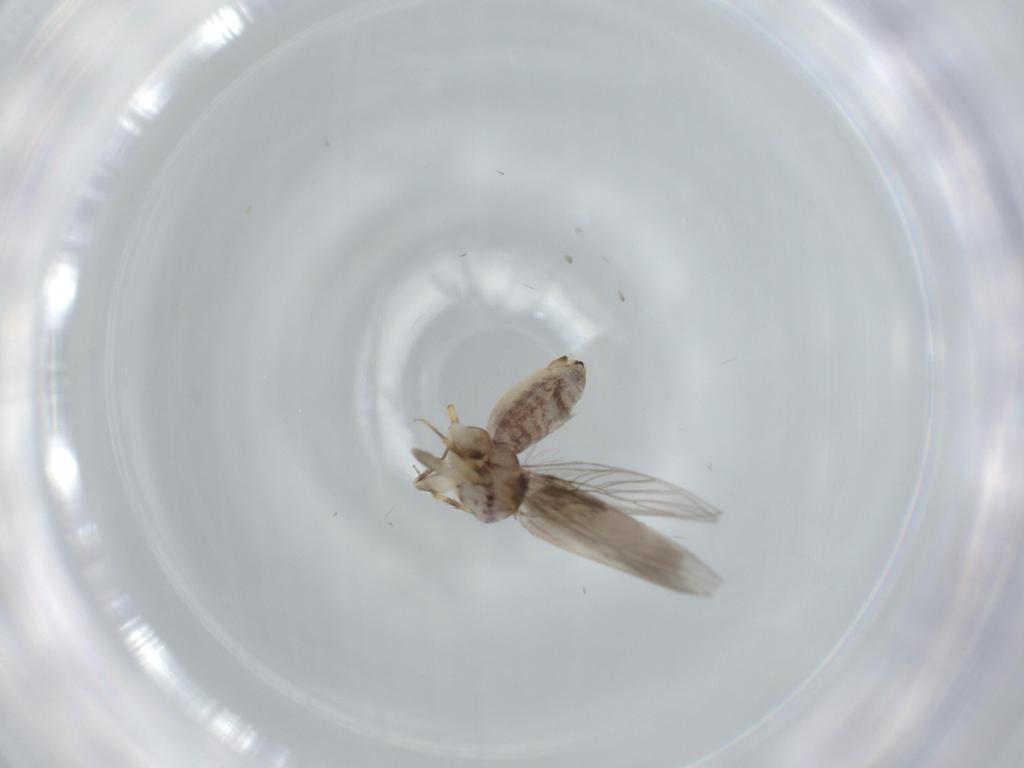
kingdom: Animalia
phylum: Arthropoda
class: Insecta
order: Psocodea
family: Lepidopsocidae
